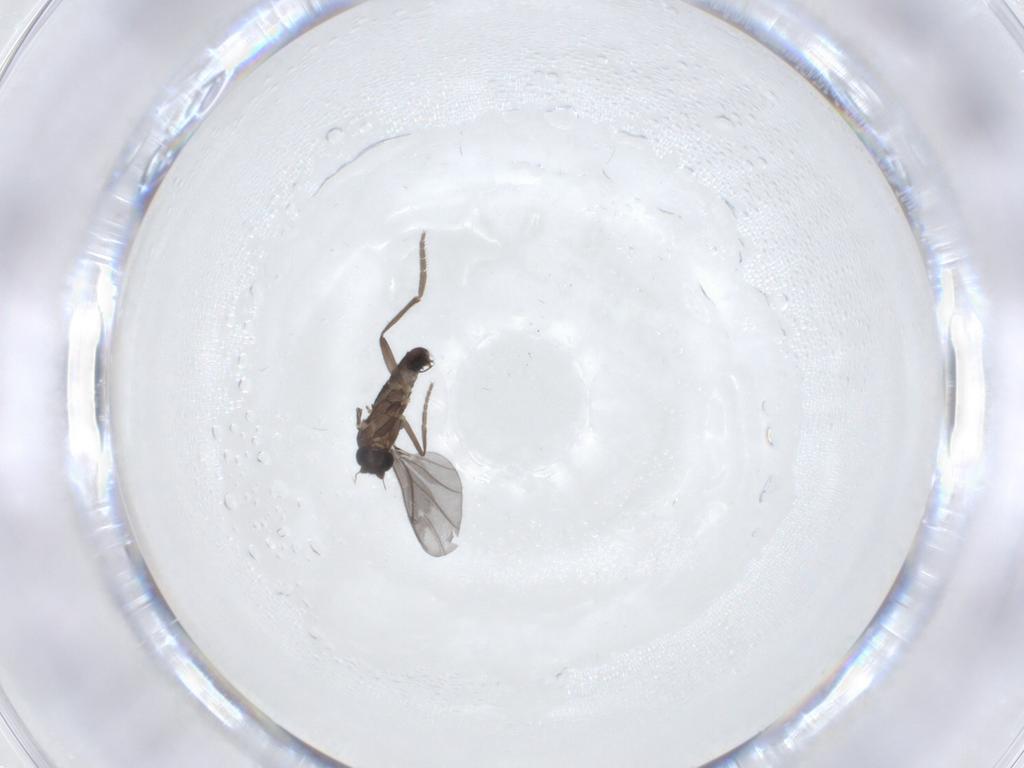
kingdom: Animalia
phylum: Arthropoda
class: Insecta
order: Diptera
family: Phoridae
